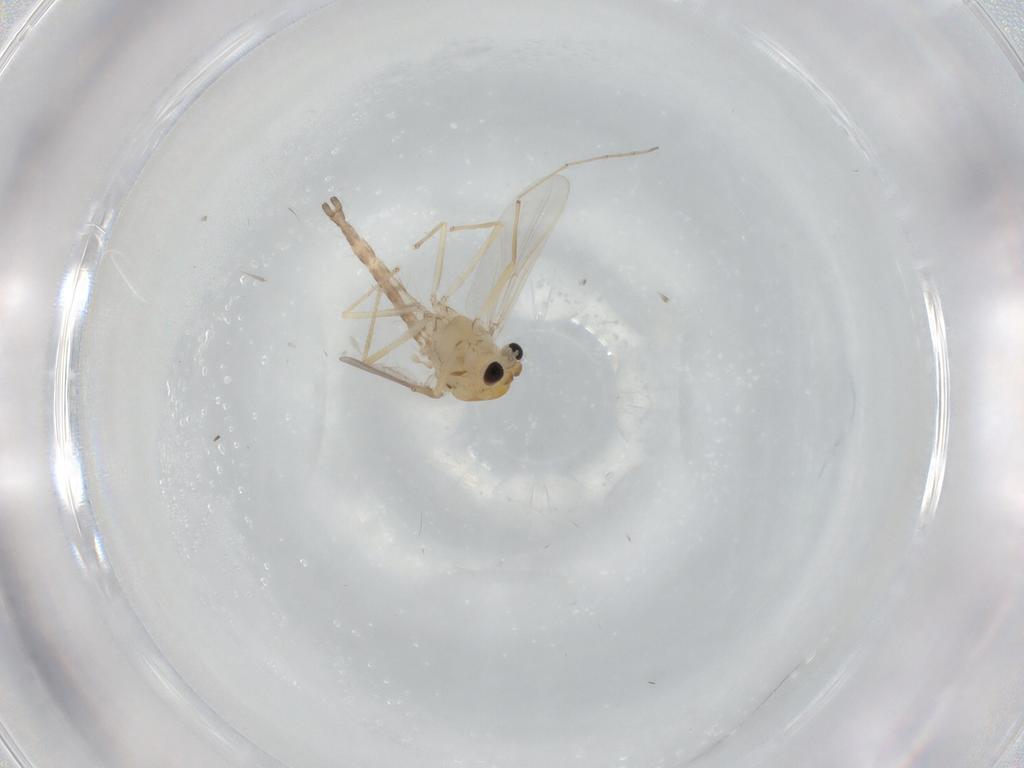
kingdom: Animalia
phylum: Arthropoda
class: Insecta
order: Diptera
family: Chironomidae
